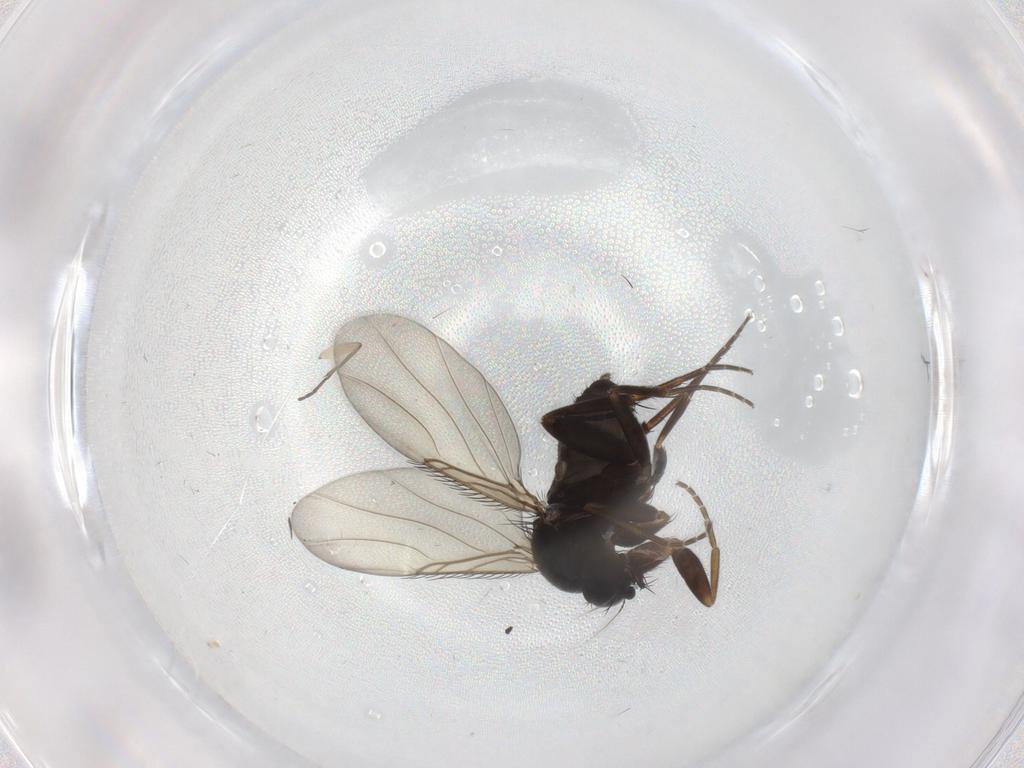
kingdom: Animalia
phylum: Arthropoda
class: Insecta
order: Diptera
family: Phoridae
